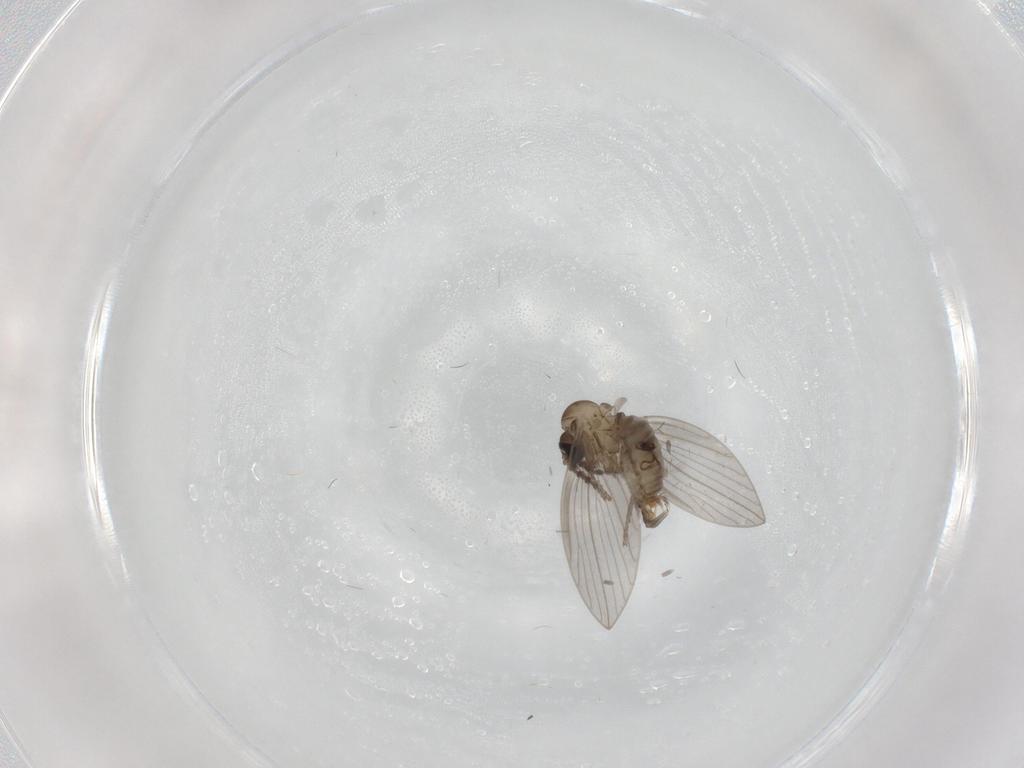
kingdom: Animalia
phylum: Arthropoda
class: Insecta
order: Diptera
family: Psychodidae
